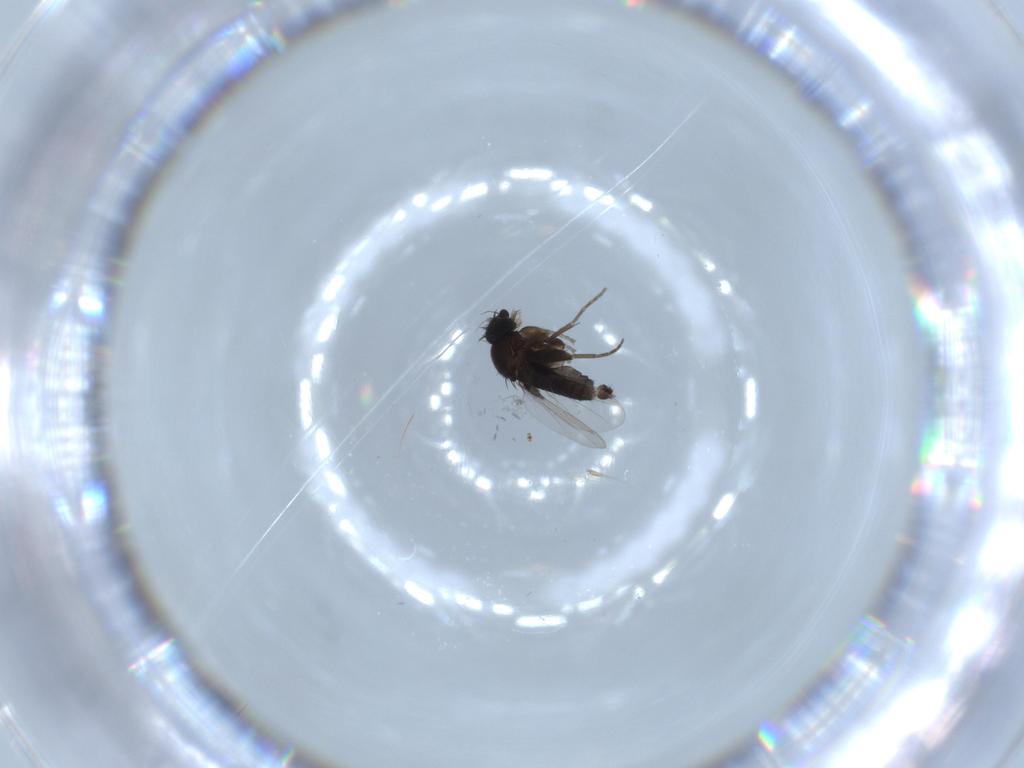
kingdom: Animalia
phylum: Arthropoda
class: Insecta
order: Diptera
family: Phoridae
